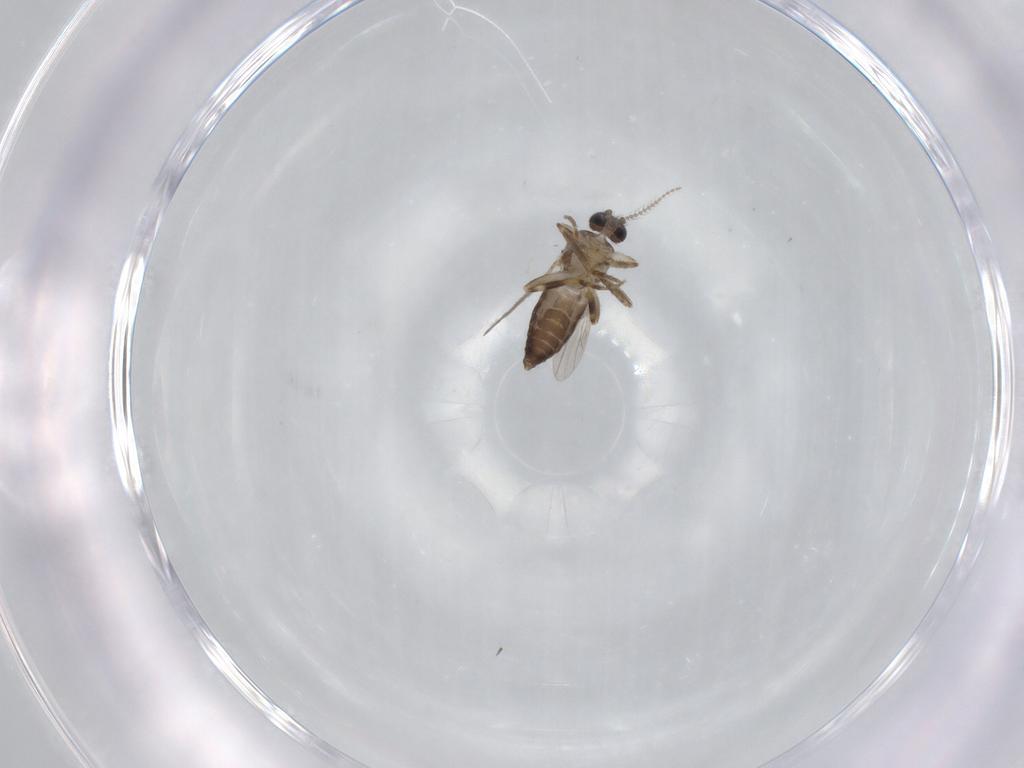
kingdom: Animalia
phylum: Arthropoda
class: Insecta
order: Diptera
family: Ceratopogonidae
